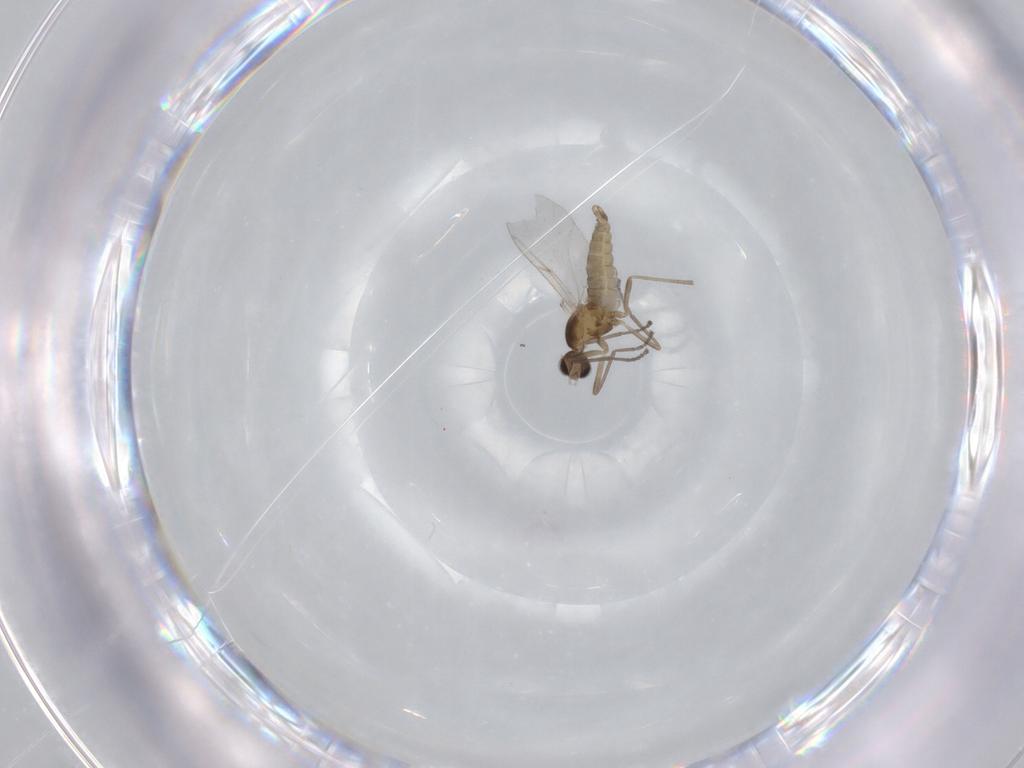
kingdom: Animalia
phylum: Arthropoda
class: Insecta
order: Diptera
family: Cecidomyiidae
